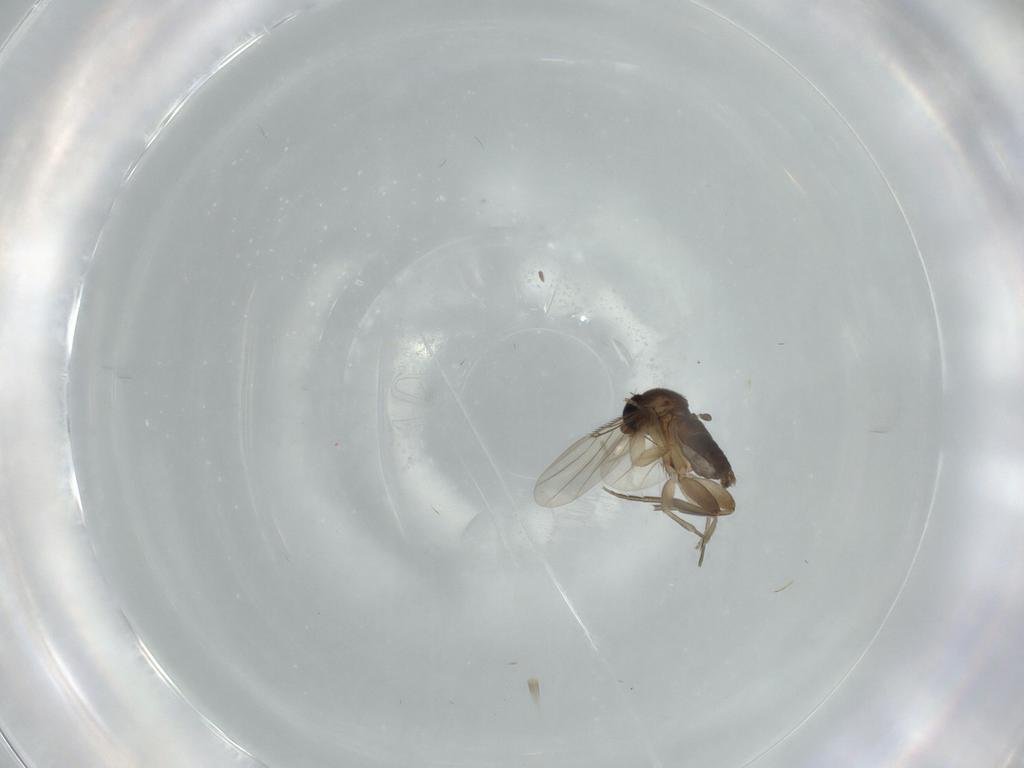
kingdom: Animalia
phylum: Arthropoda
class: Insecta
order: Diptera
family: Phoridae
